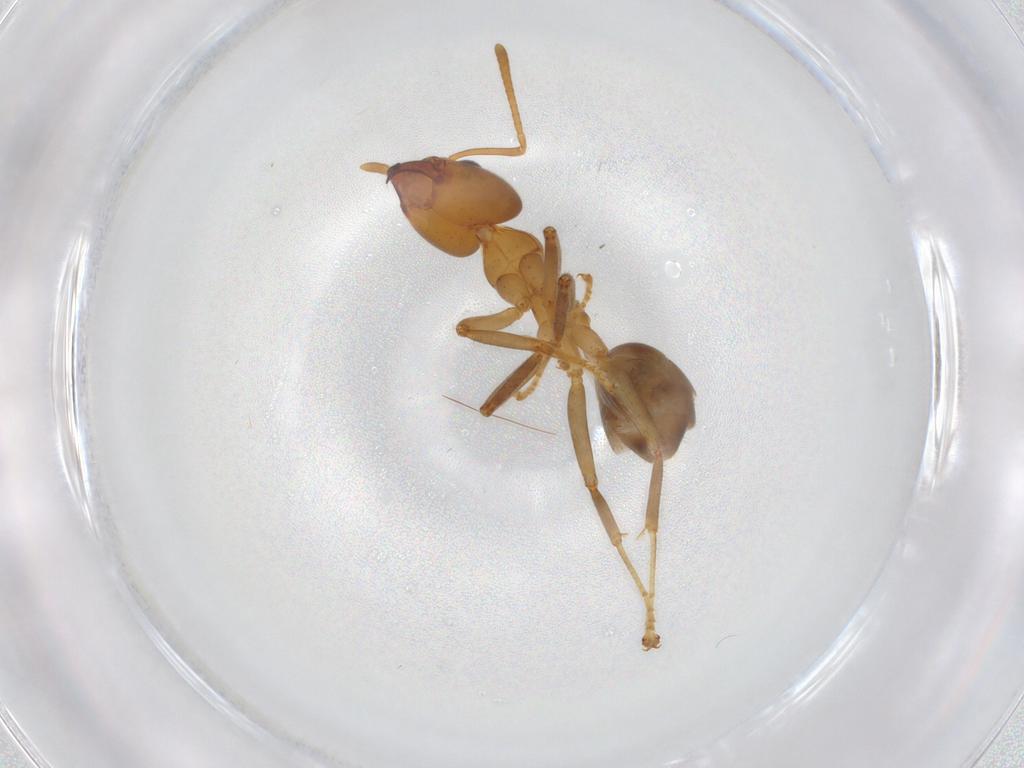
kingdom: Animalia
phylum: Arthropoda
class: Insecta
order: Hymenoptera
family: Formicidae
